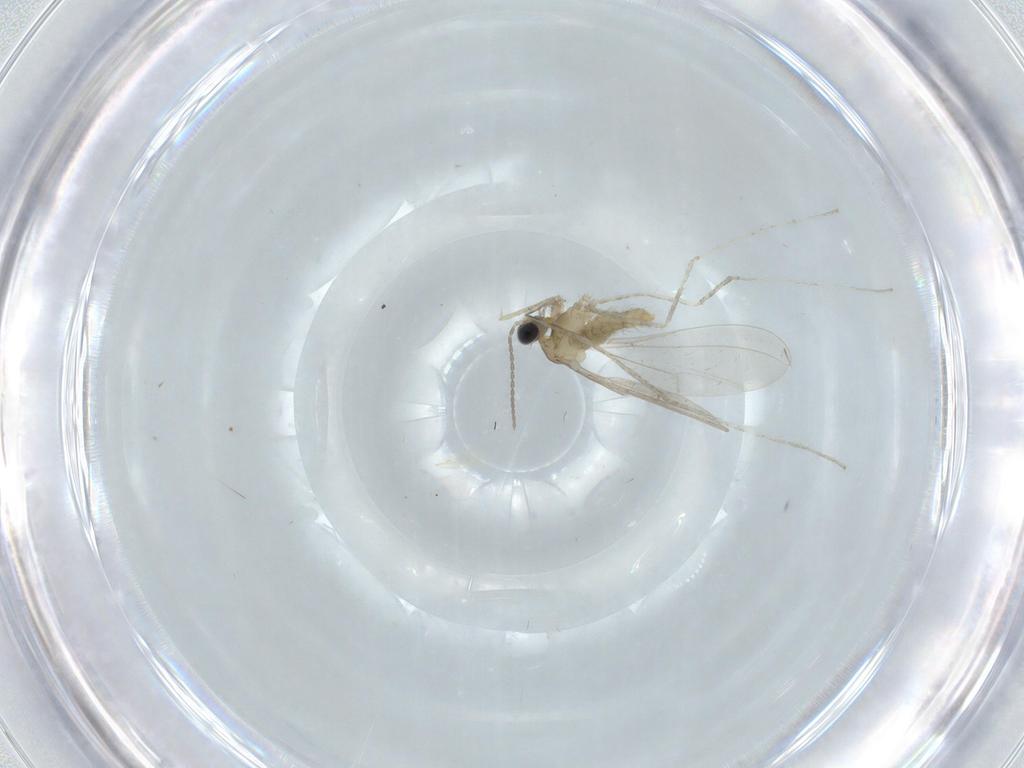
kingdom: Animalia
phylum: Arthropoda
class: Insecta
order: Diptera
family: Cecidomyiidae
